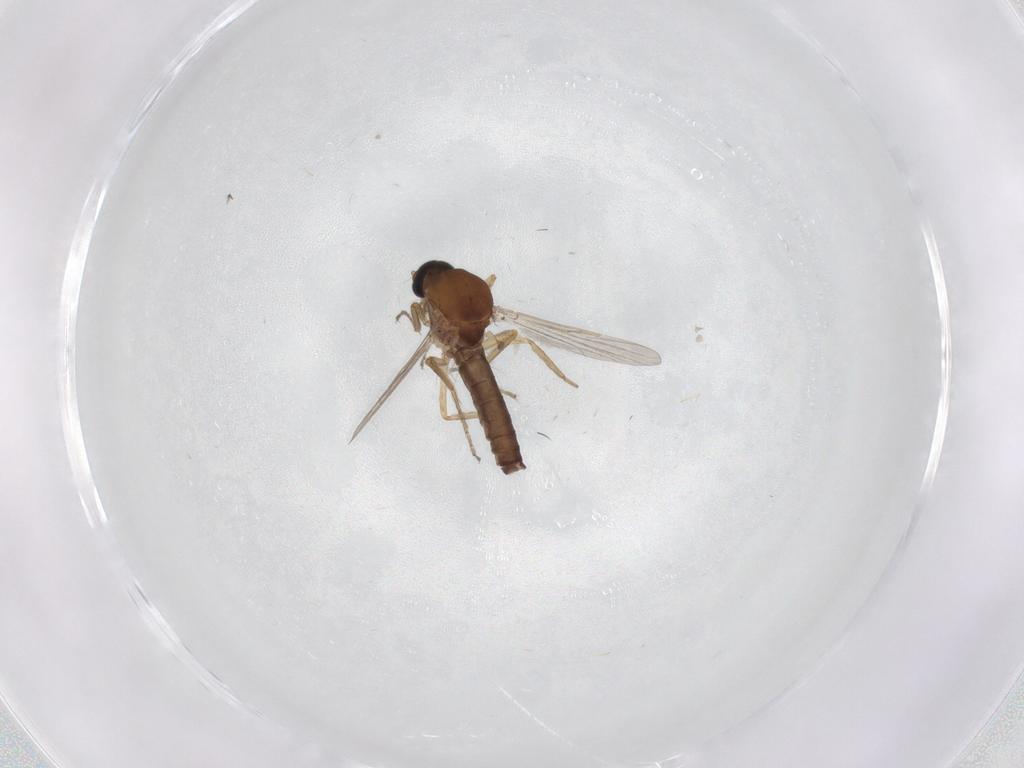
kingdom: Animalia
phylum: Arthropoda
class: Insecta
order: Diptera
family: Ceratopogonidae
